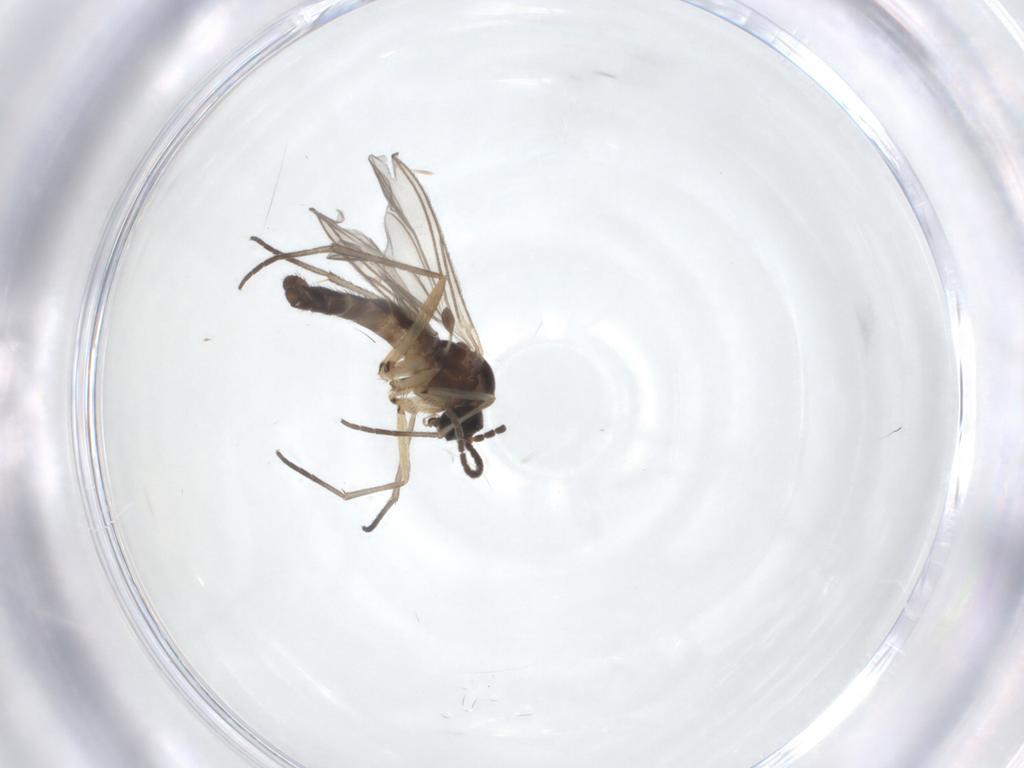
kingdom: Animalia
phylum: Arthropoda
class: Insecta
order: Diptera
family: Sciaridae
